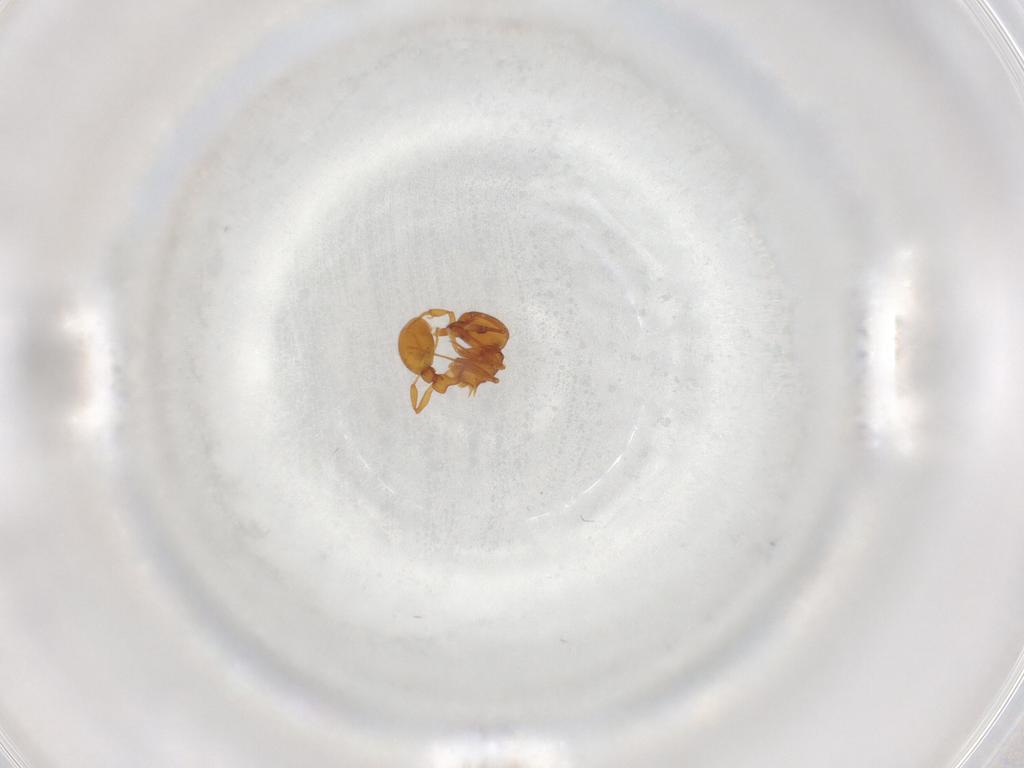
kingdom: Animalia
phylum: Arthropoda
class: Insecta
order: Hymenoptera
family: Formicidae
